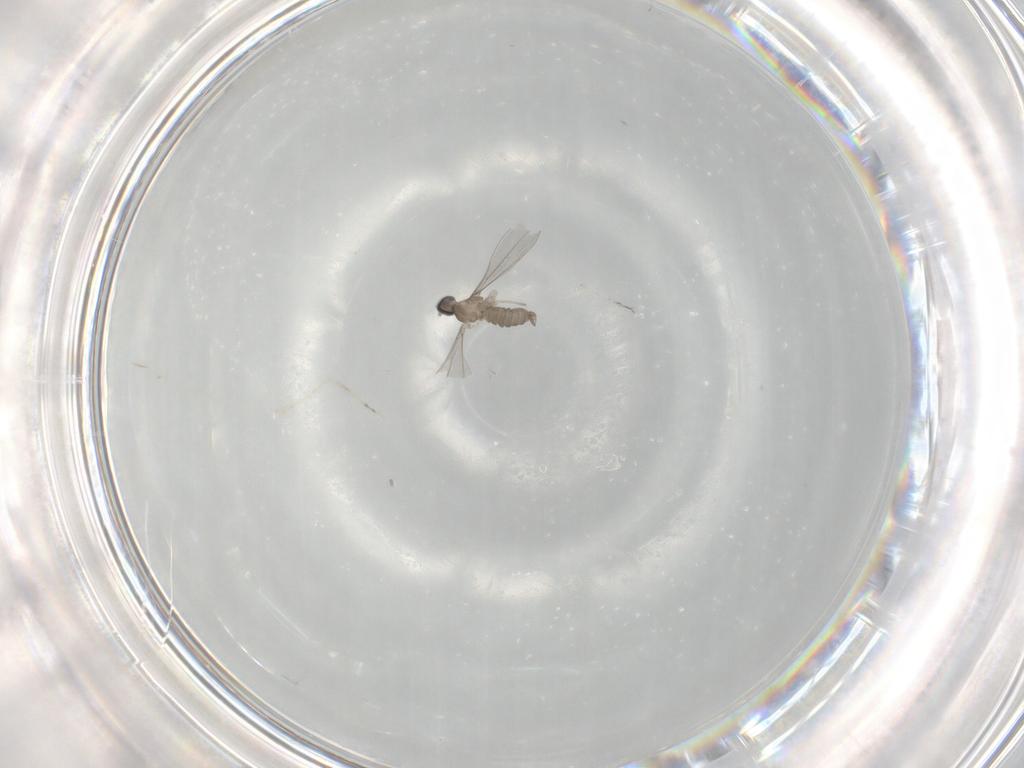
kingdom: Animalia
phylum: Arthropoda
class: Insecta
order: Diptera
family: Cecidomyiidae
